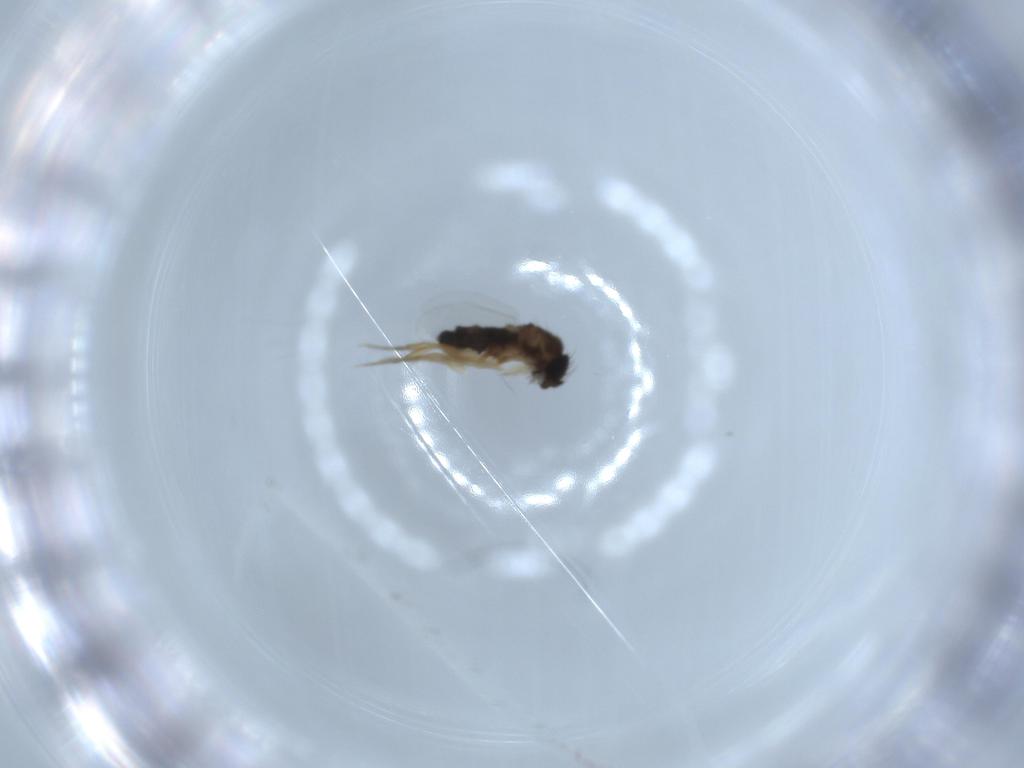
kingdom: Animalia
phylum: Arthropoda
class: Insecta
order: Diptera
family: Phoridae
